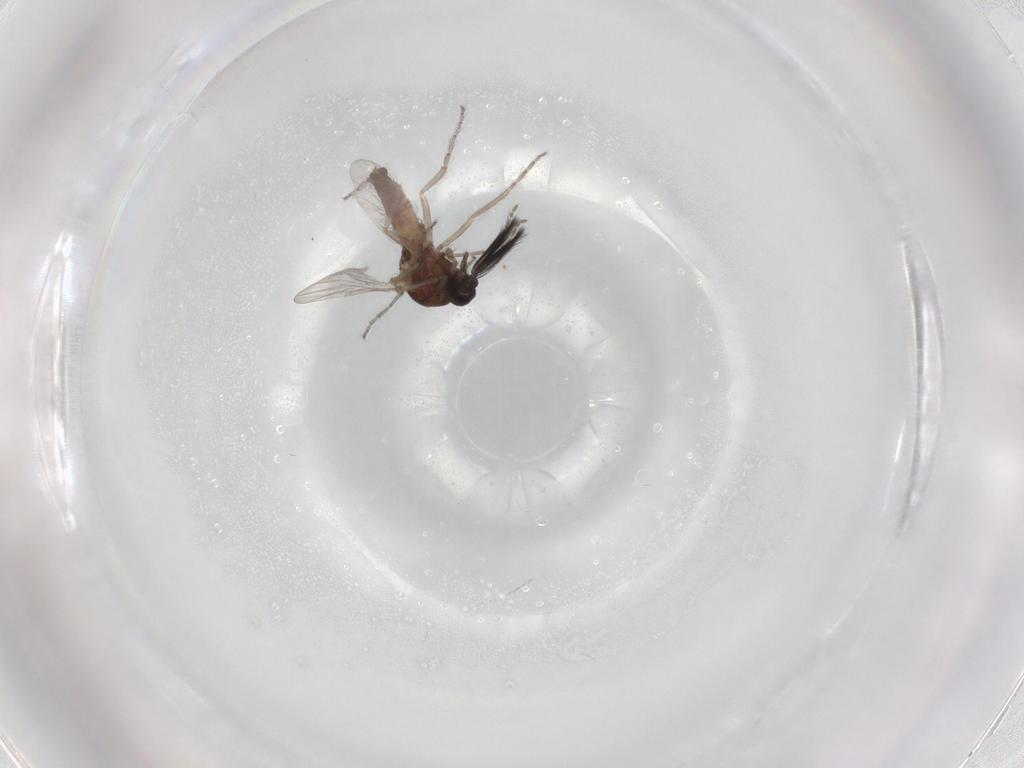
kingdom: Animalia
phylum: Arthropoda
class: Insecta
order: Diptera
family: Ceratopogonidae
